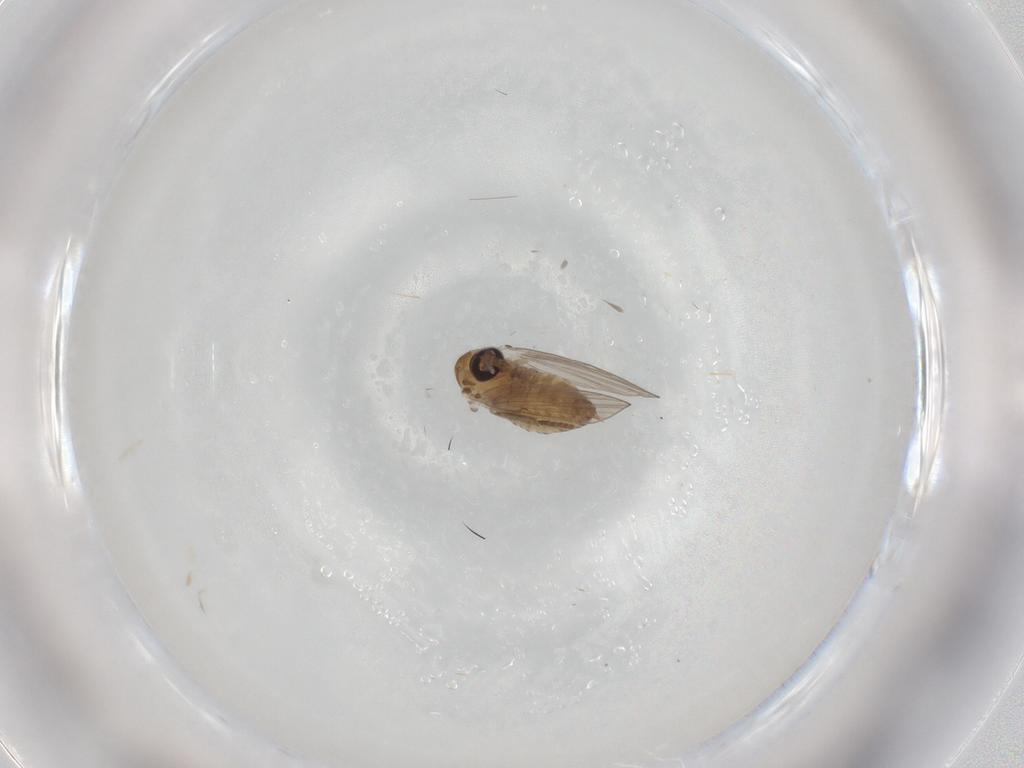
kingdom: Animalia
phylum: Arthropoda
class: Insecta
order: Diptera
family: Psychodidae
